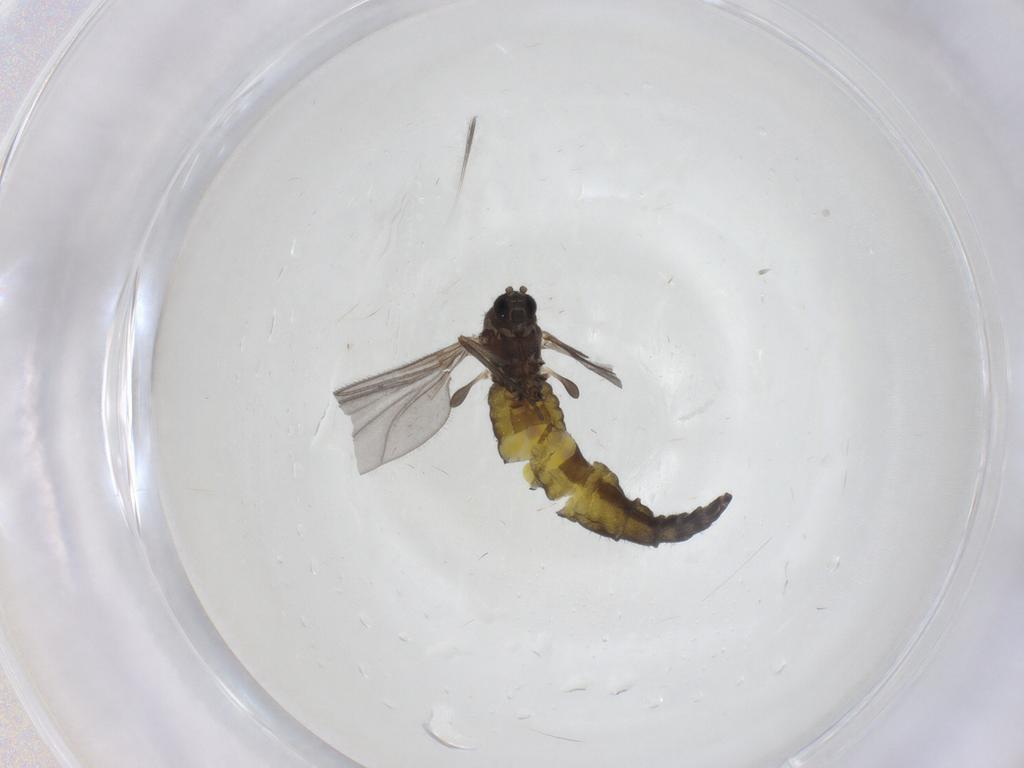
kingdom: Animalia
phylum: Arthropoda
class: Insecta
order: Diptera
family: Sciaridae
